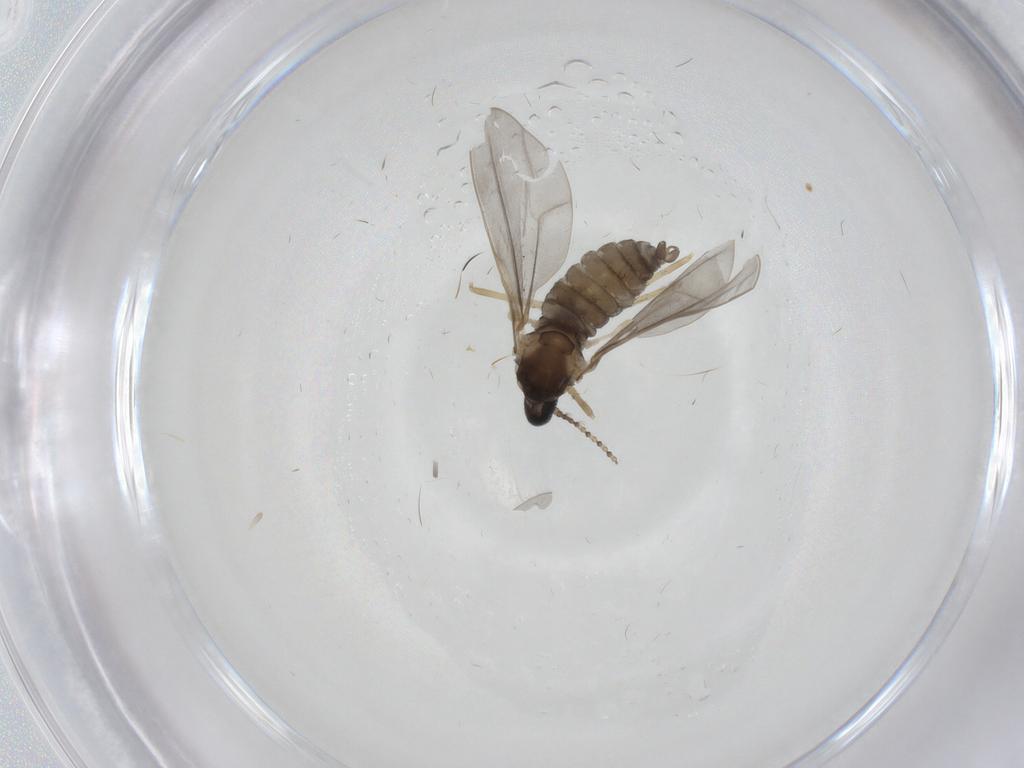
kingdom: Animalia
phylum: Arthropoda
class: Insecta
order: Diptera
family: Cecidomyiidae
